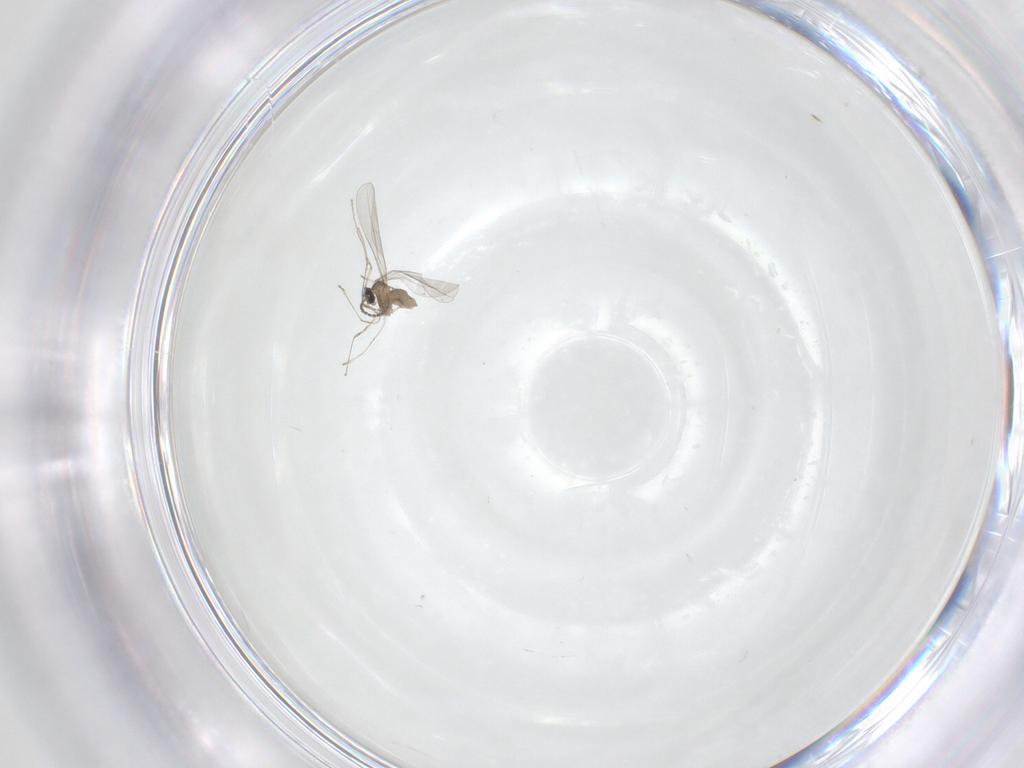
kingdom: Animalia
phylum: Arthropoda
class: Insecta
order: Diptera
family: Cecidomyiidae
